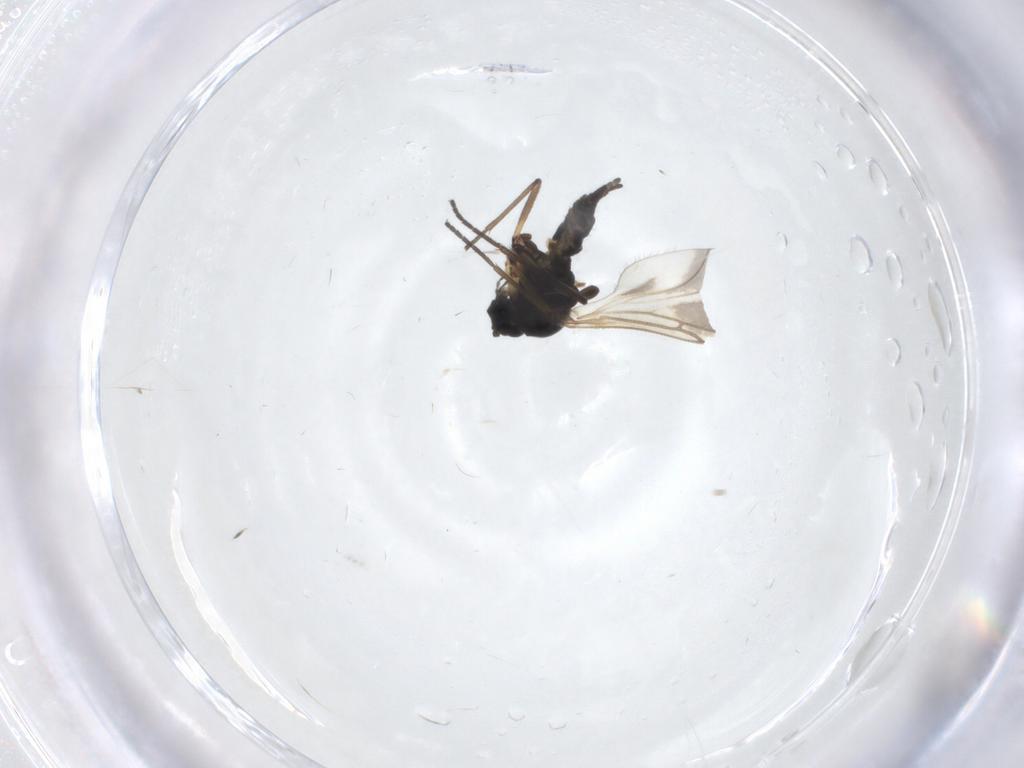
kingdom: Animalia
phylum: Arthropoda
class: Insecta
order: Diptera
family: Sciaridae
